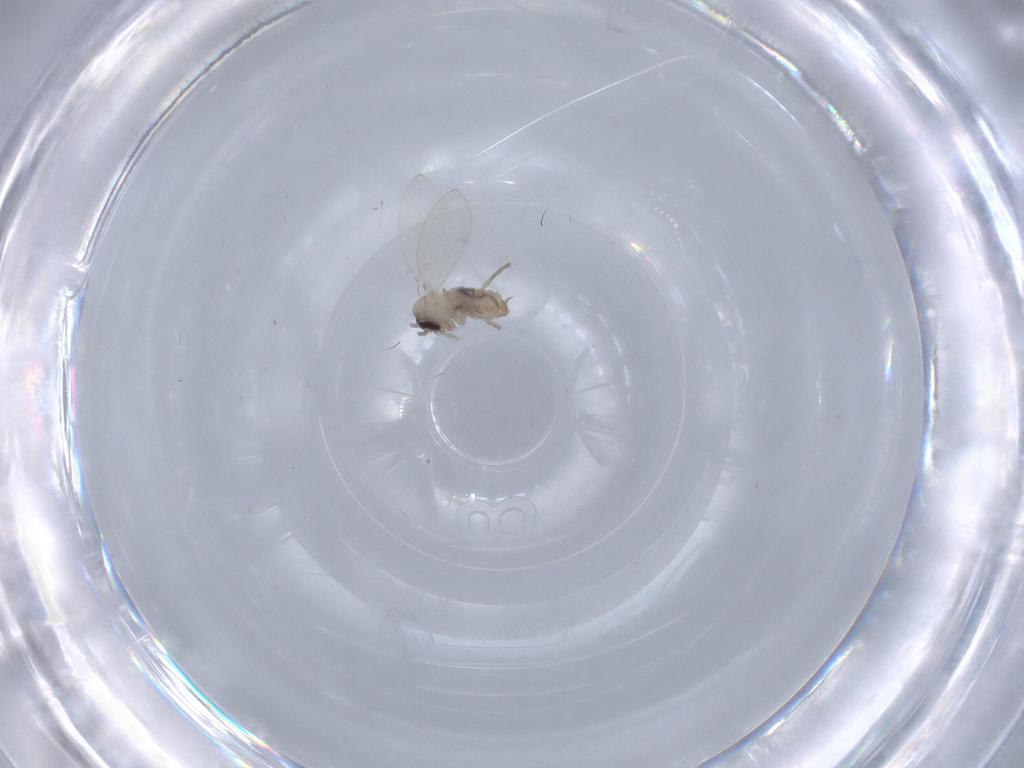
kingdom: Animalia
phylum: Arthropoda
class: Insecta
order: Diptera
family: Psychodidae
